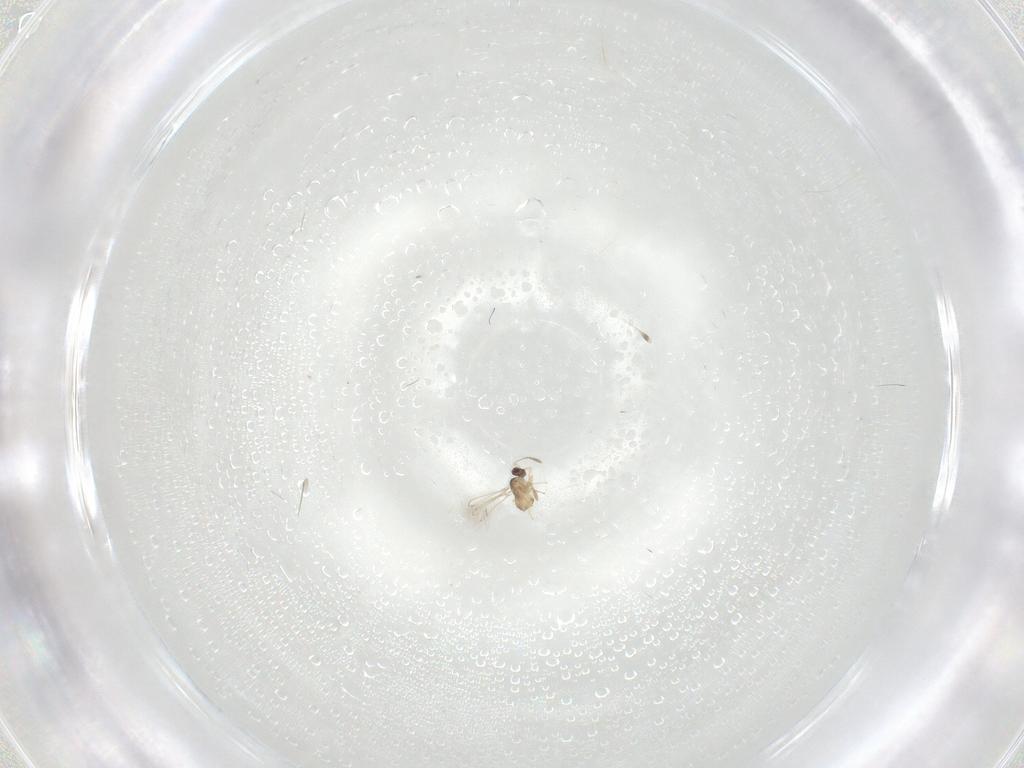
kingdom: Animalia
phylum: Arthropoda
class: Insecta
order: Hymenoptera
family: Mymaridae
